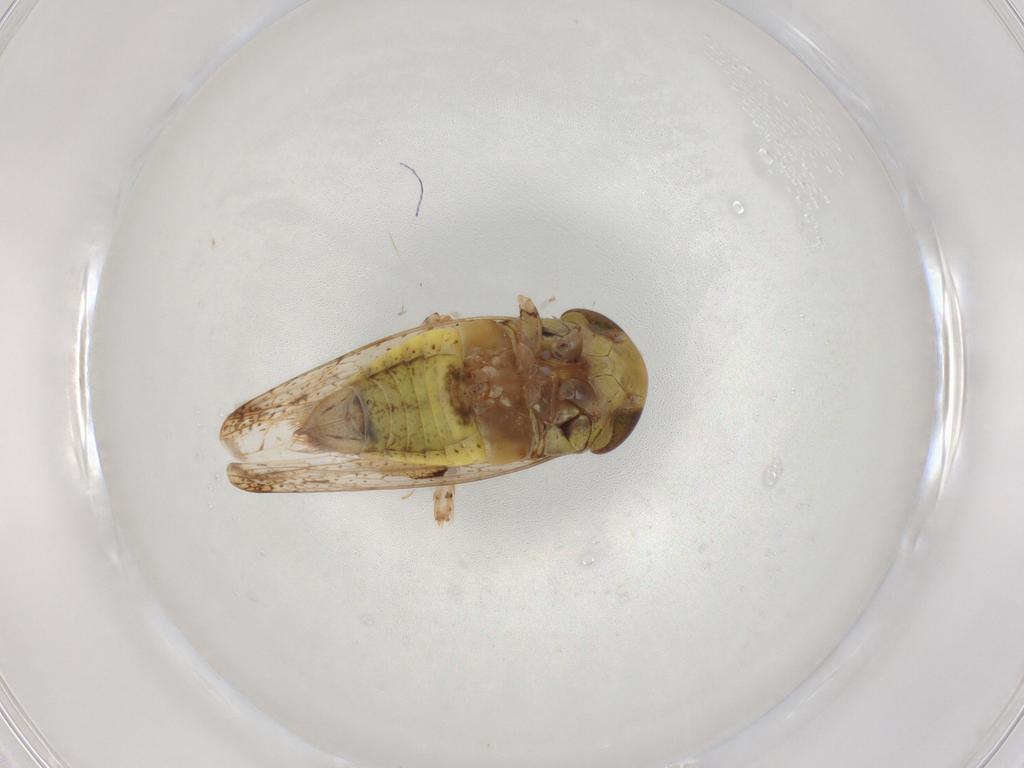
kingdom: Animalia
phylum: Arthropoda
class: Insecta
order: Hemiptera
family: Cicadellidae
